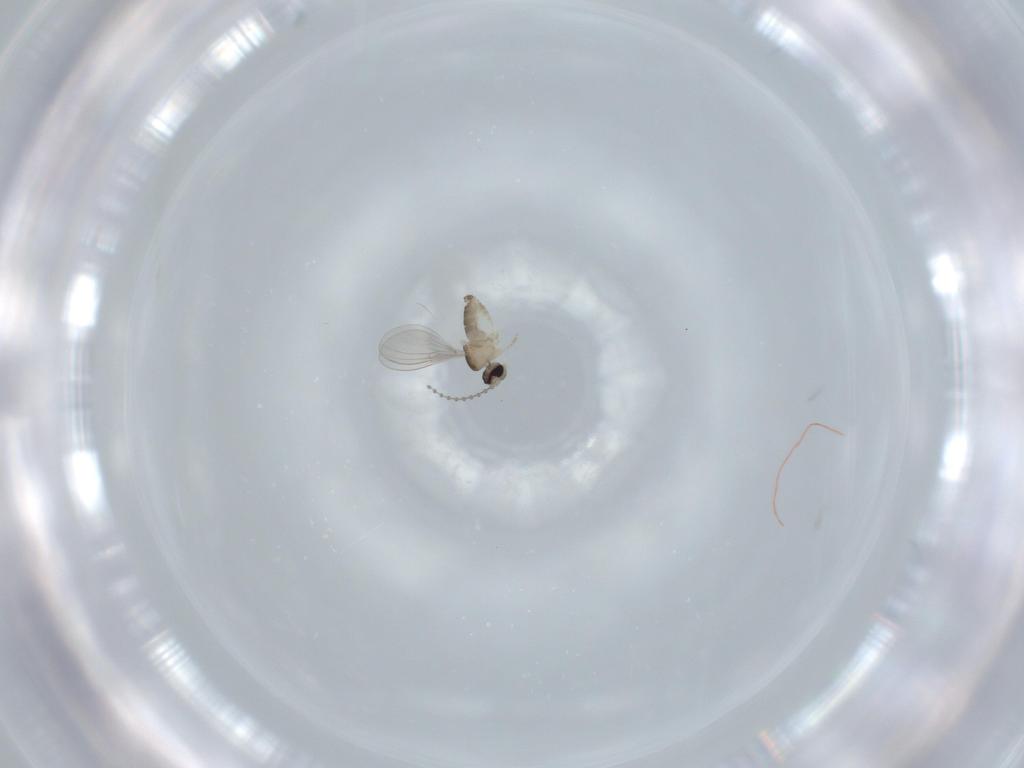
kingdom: Animalia
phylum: Arthropoda
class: Insecta
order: Diptera
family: Cecidomyiidae
